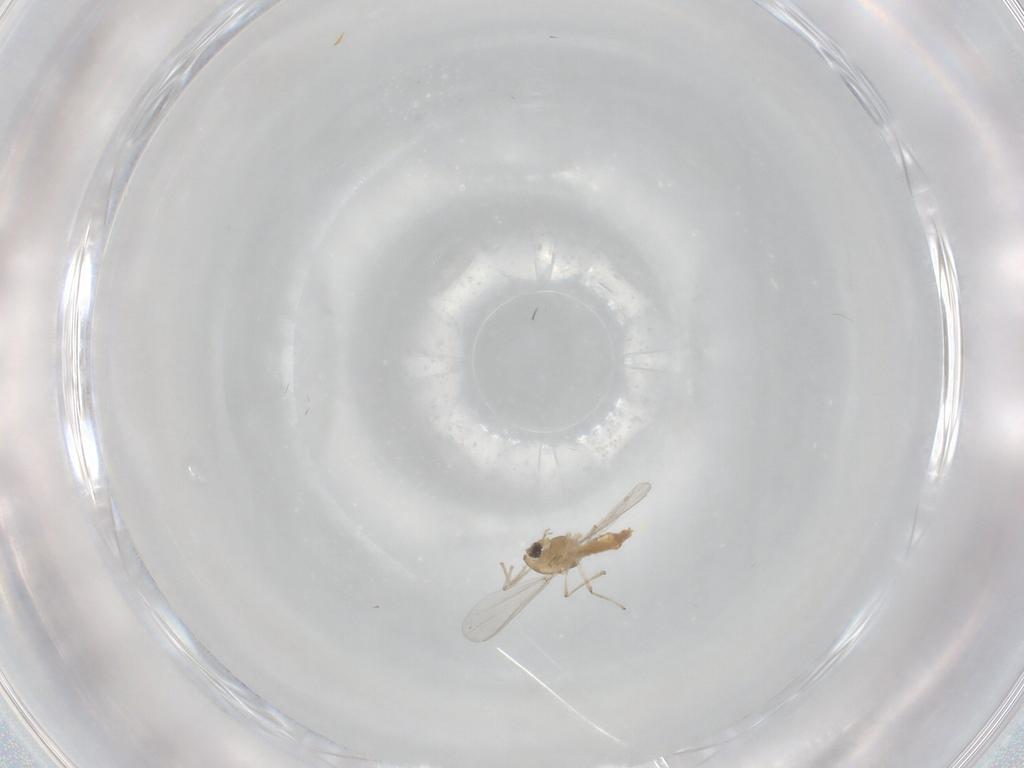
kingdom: Animalia
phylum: Arthropoda
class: Insecta
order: Diptera
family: Chironomidae
